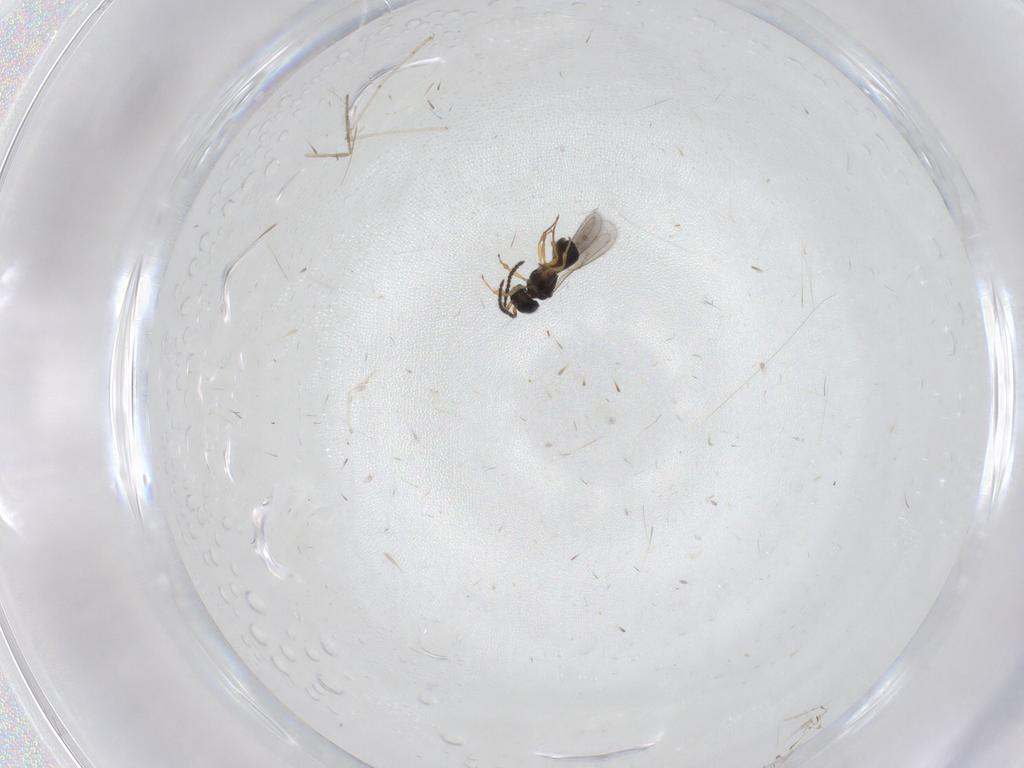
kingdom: Animalia
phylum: Arthropoda
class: Insecta
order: Hymenoptera
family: Scelionidae
